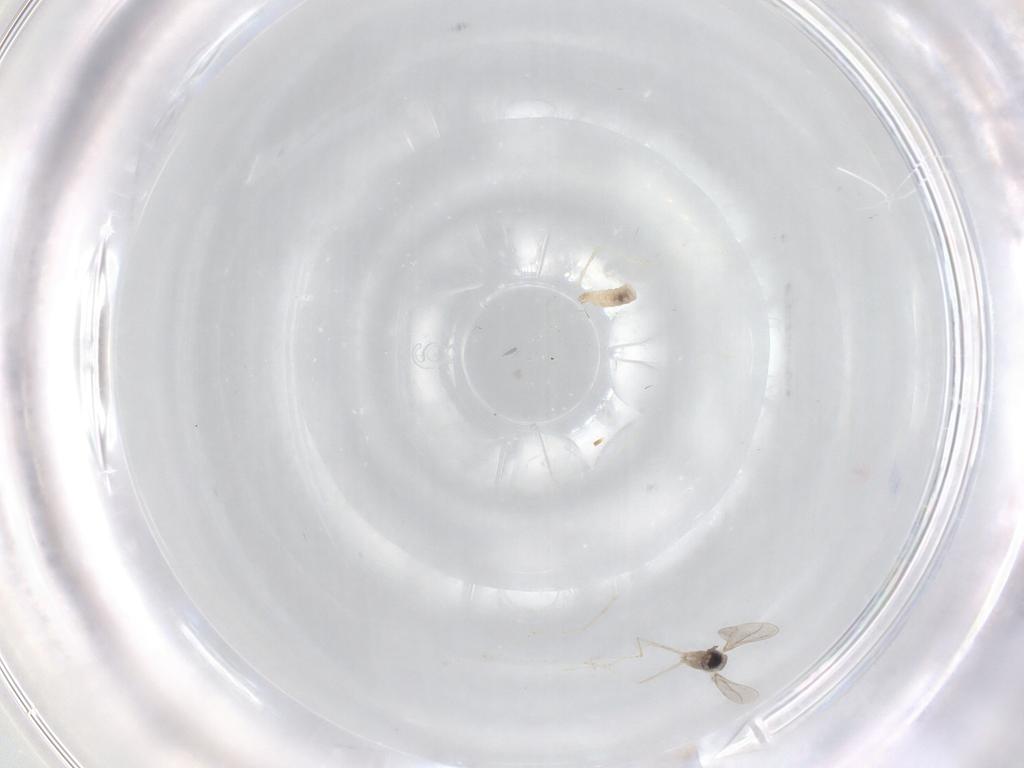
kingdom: Animalia
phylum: Arthropoda
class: Insecta
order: Diptera
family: Cecidomyiidae
